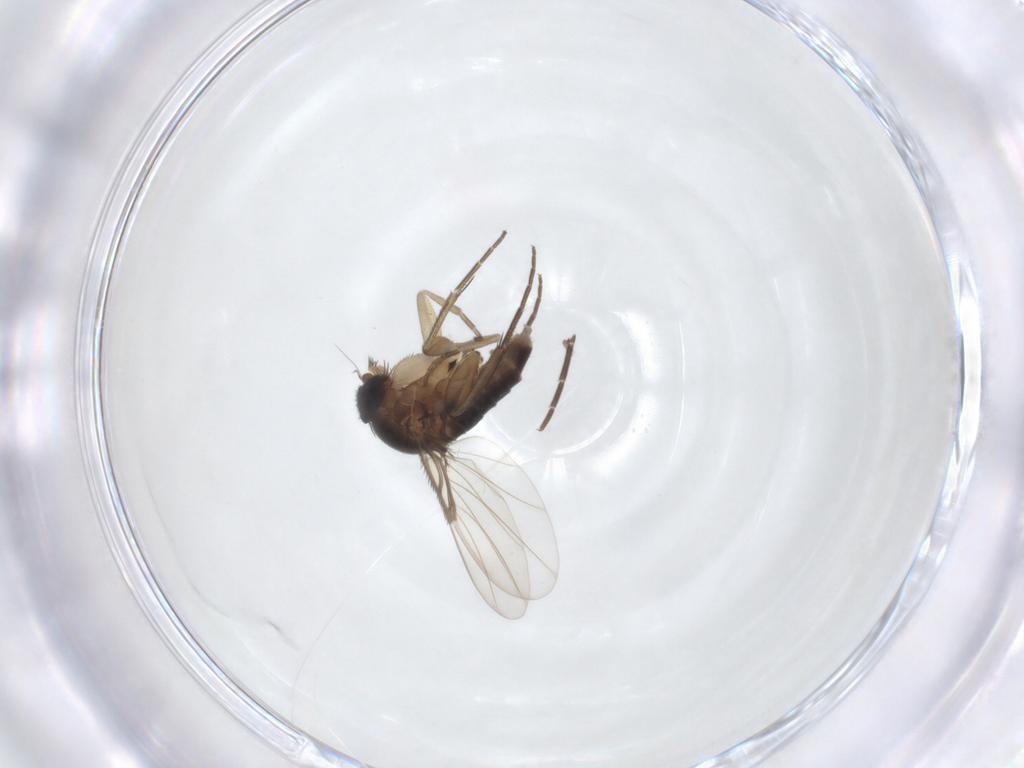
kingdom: Animalia
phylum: Arthropoda
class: Insecta
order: Diptera
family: Phoridae
